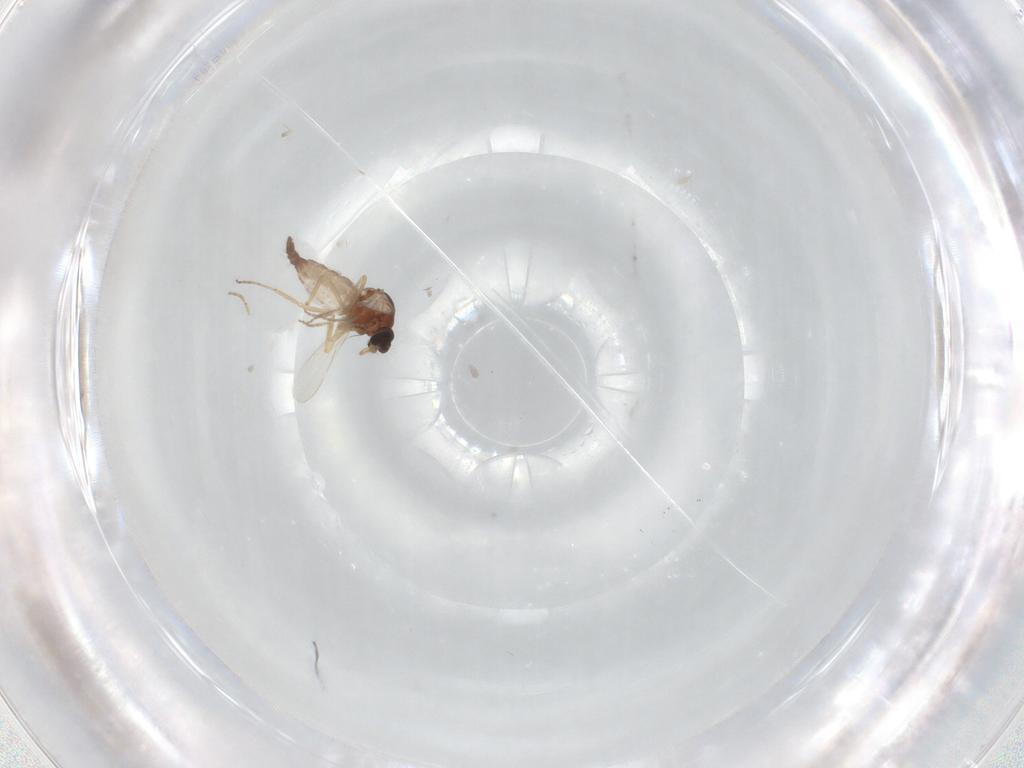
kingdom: Animalia
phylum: Arthropoda
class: Insecta
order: Diptera
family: Ceratopogonidae
